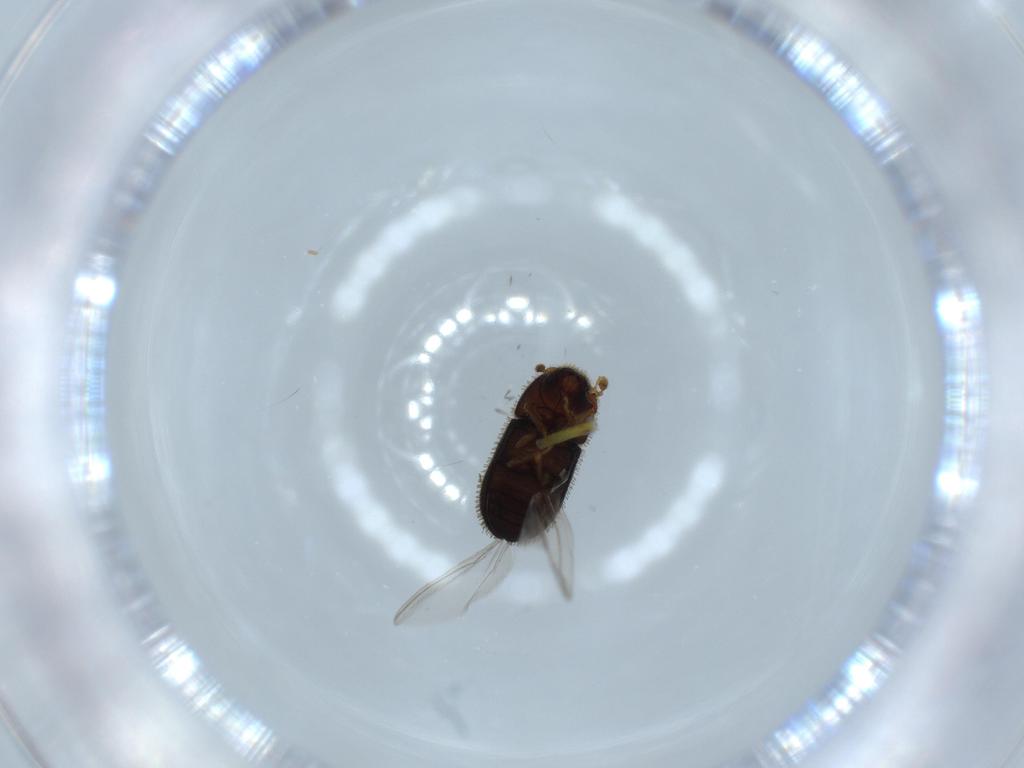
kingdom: Animalia
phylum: Arthropoda
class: Insecta
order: Coleoptera
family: Curculionidae
